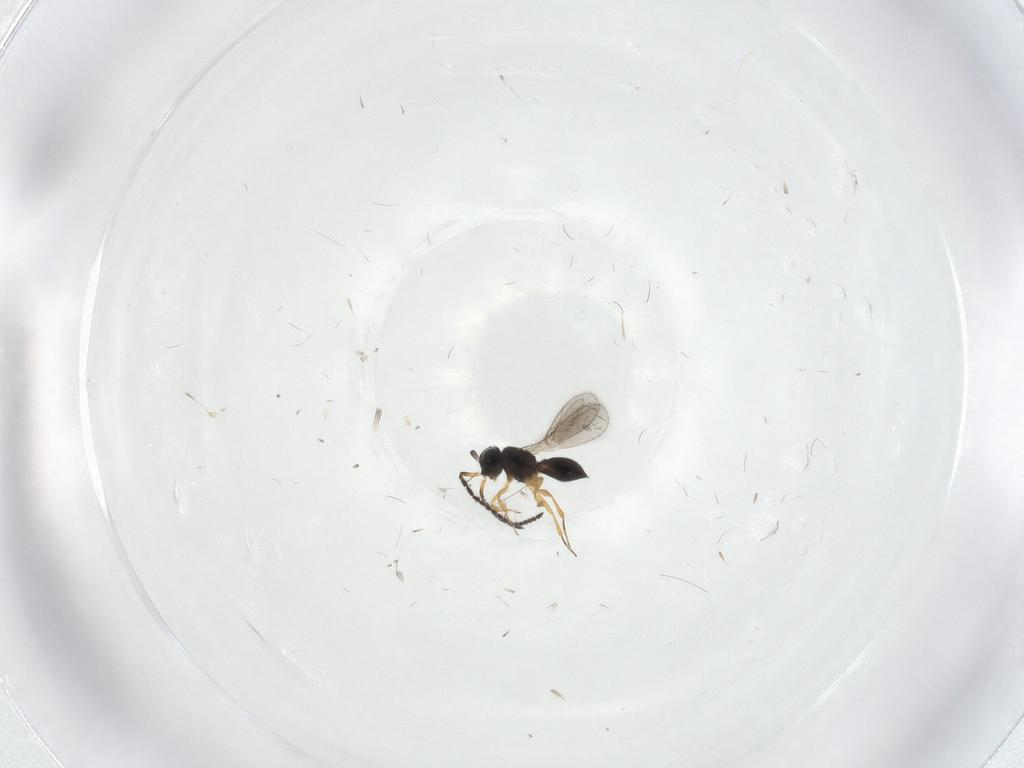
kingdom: Animalia
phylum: Arthropoda
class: Insecta
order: Hymenoptera
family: Scelionidae
